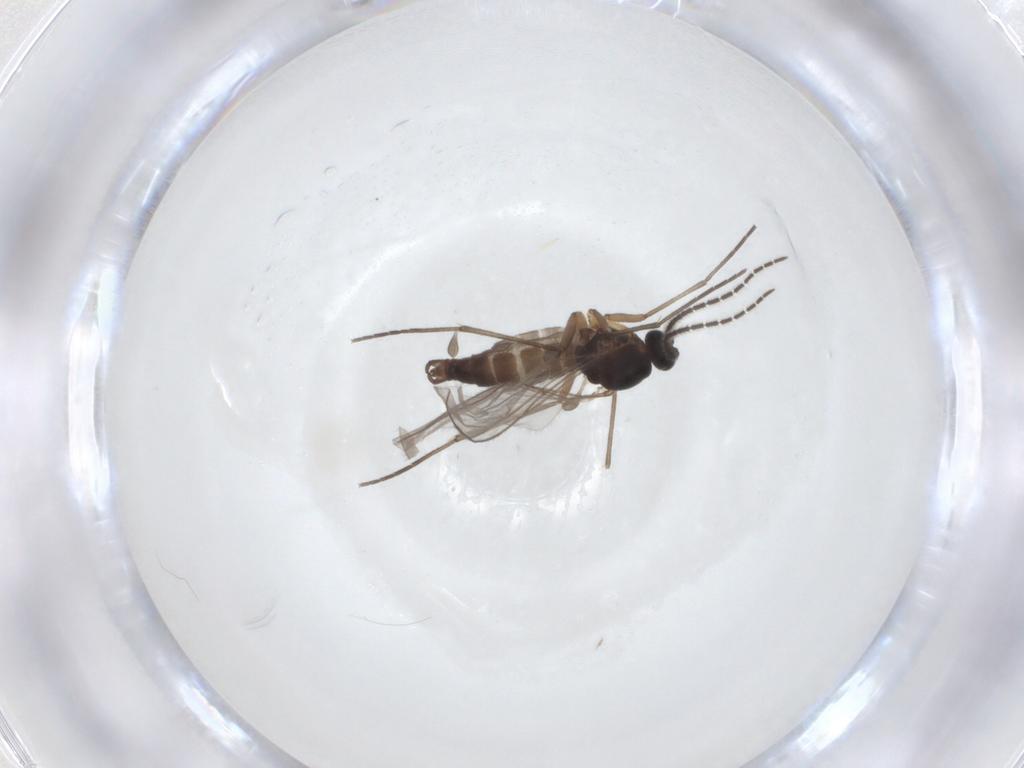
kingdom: Animalia
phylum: Arthropoda
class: Insecta
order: Diptera
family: Sciaridae
